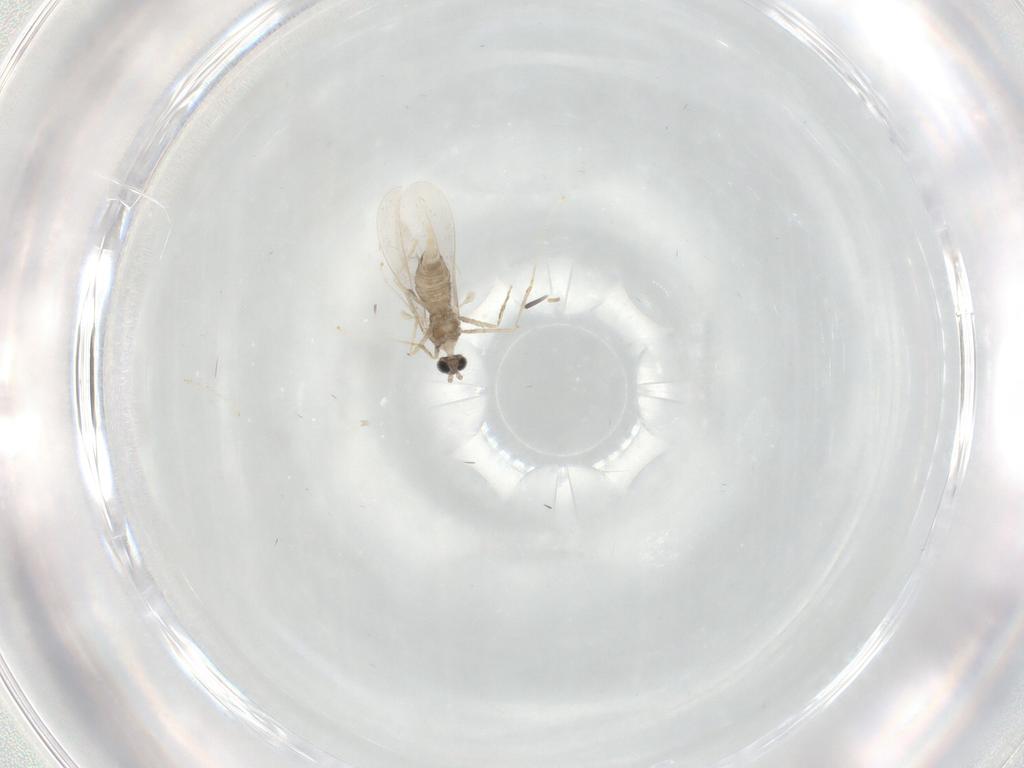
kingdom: Animalia
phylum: Arthropoda
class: Insecta
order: Diptera
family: Cecidomyiidae
